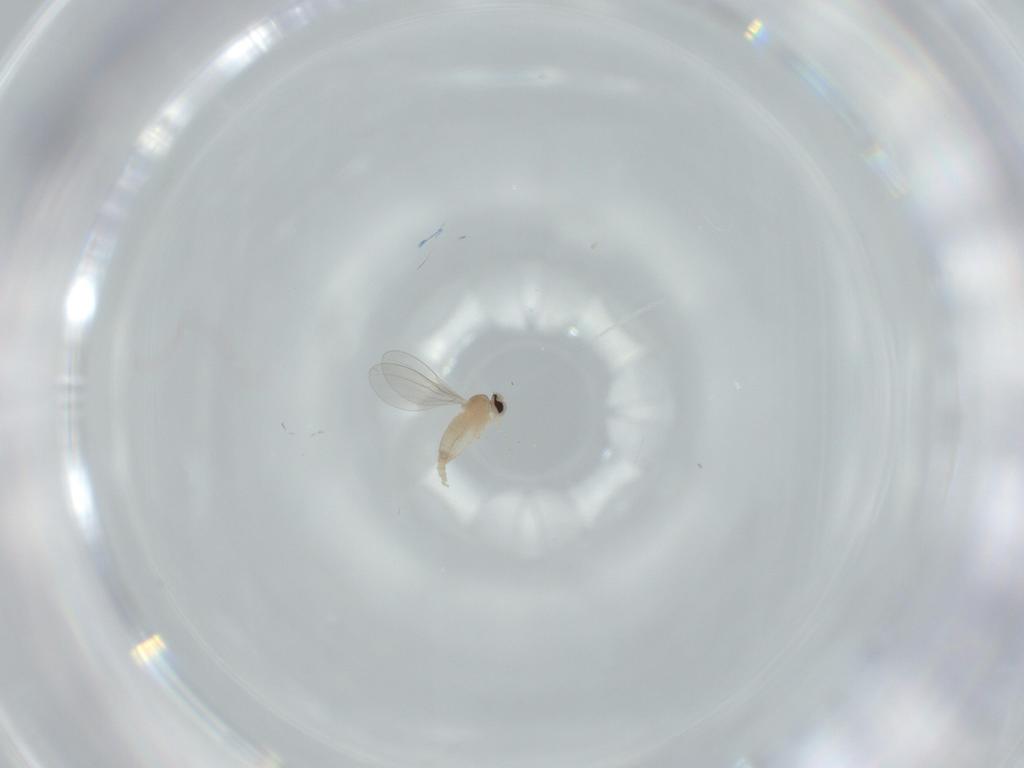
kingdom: Animalia
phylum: Arthropoda
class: Insecta
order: Diptera
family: Cecidomyiidae
